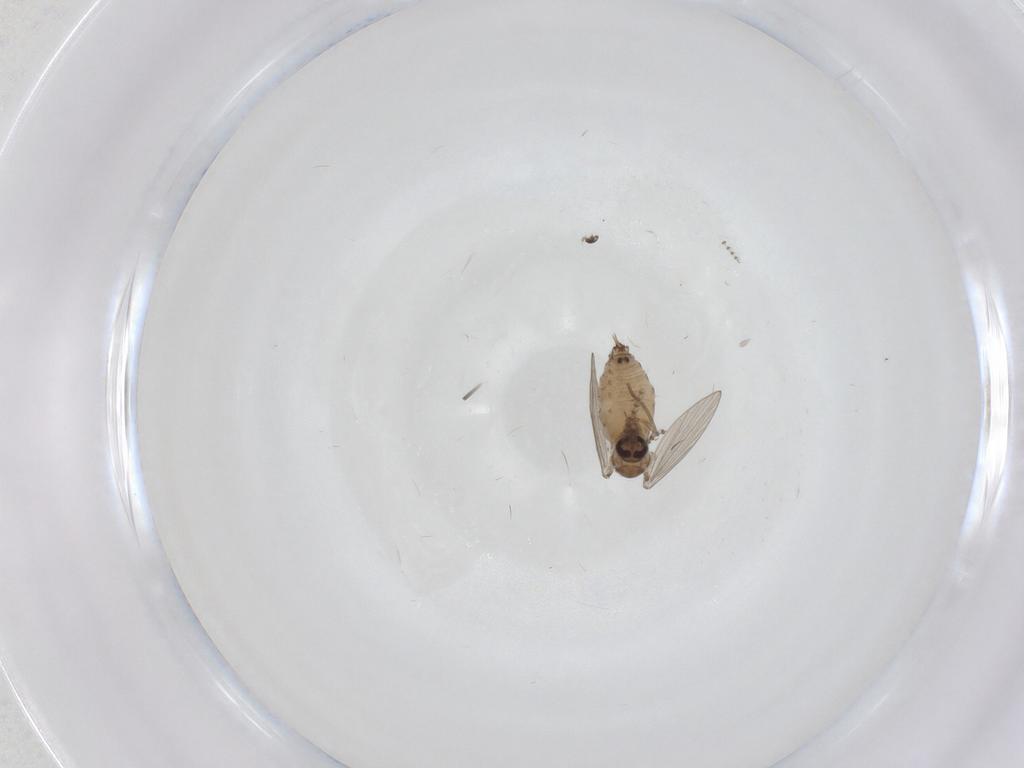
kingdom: Animalia
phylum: Arthropoda
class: Insecta
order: Diptera
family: Psychodidae
